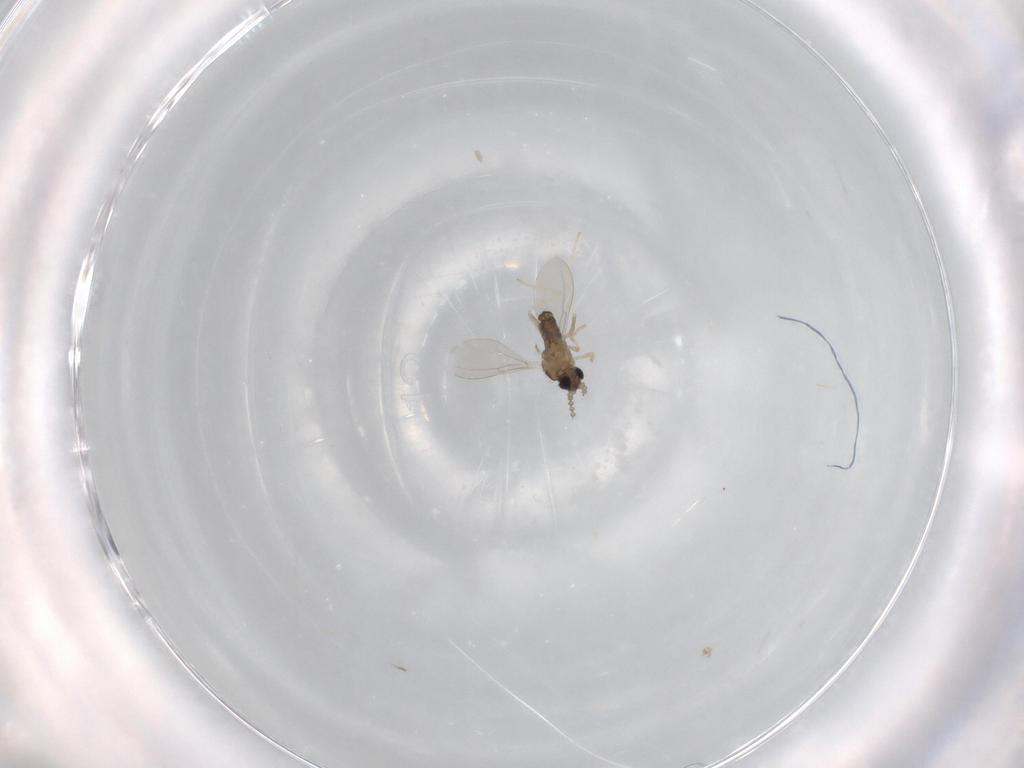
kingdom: Animalia
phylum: Arthropoda
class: Insecta
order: Diptera
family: Cecidomyiidae
